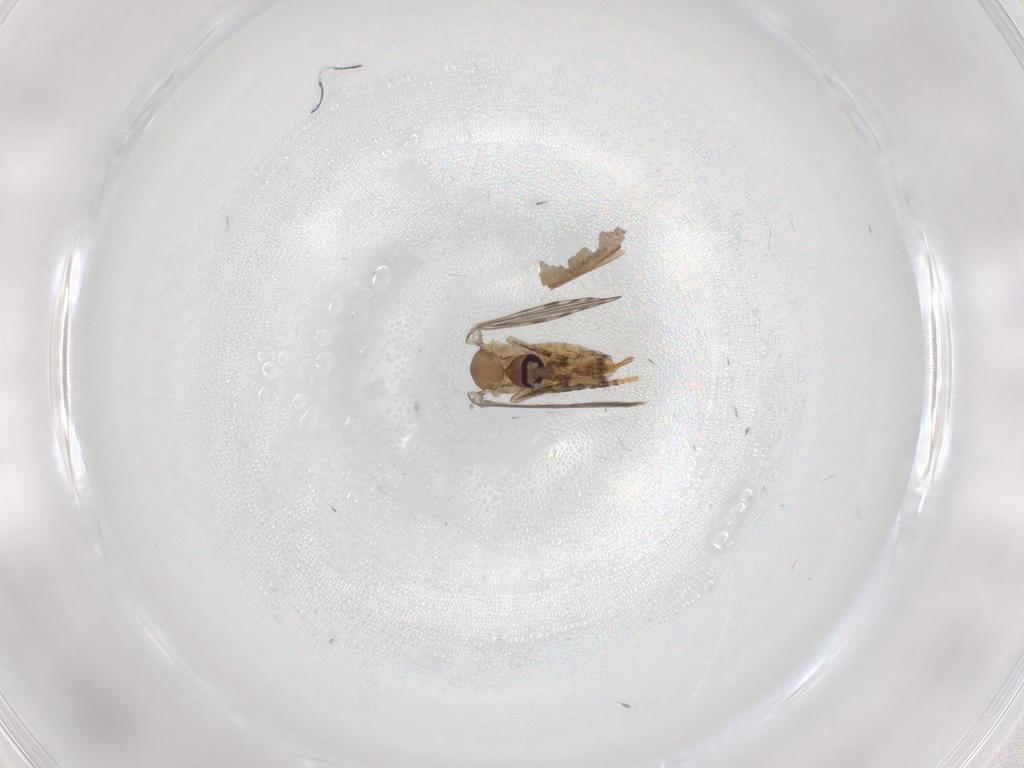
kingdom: Animalia
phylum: Arthropoda
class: Insecta
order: Diptera
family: Psychodidae
